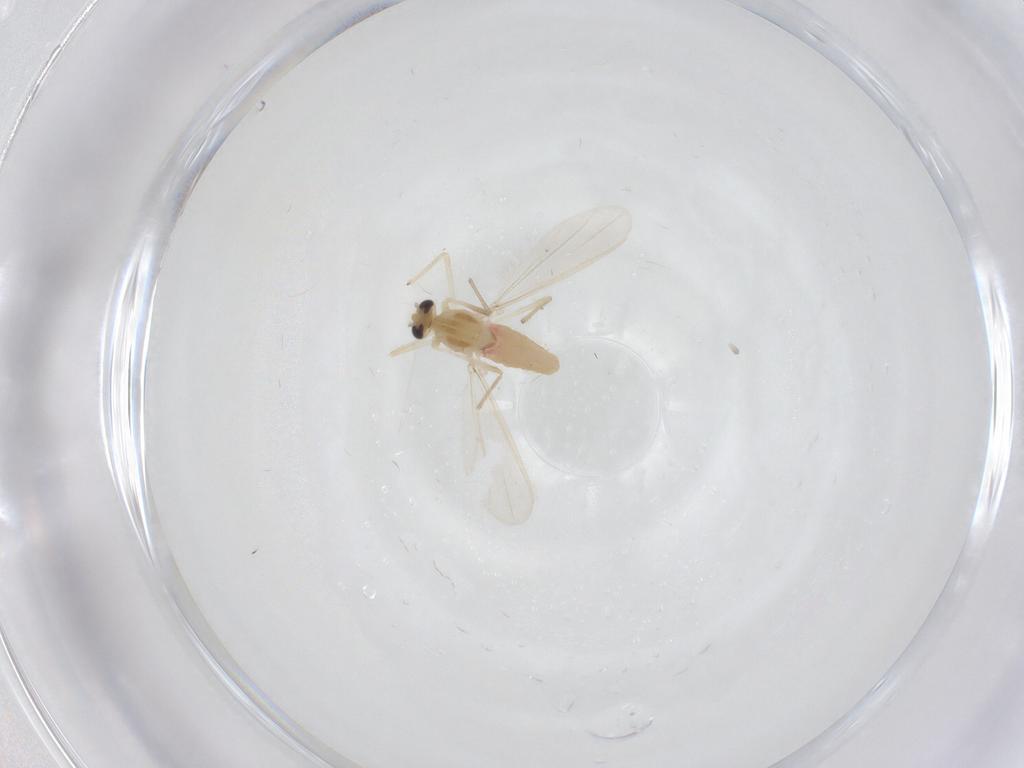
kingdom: Animalia
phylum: Arthropoda
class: Insecta
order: Diptera
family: Chironomidae
